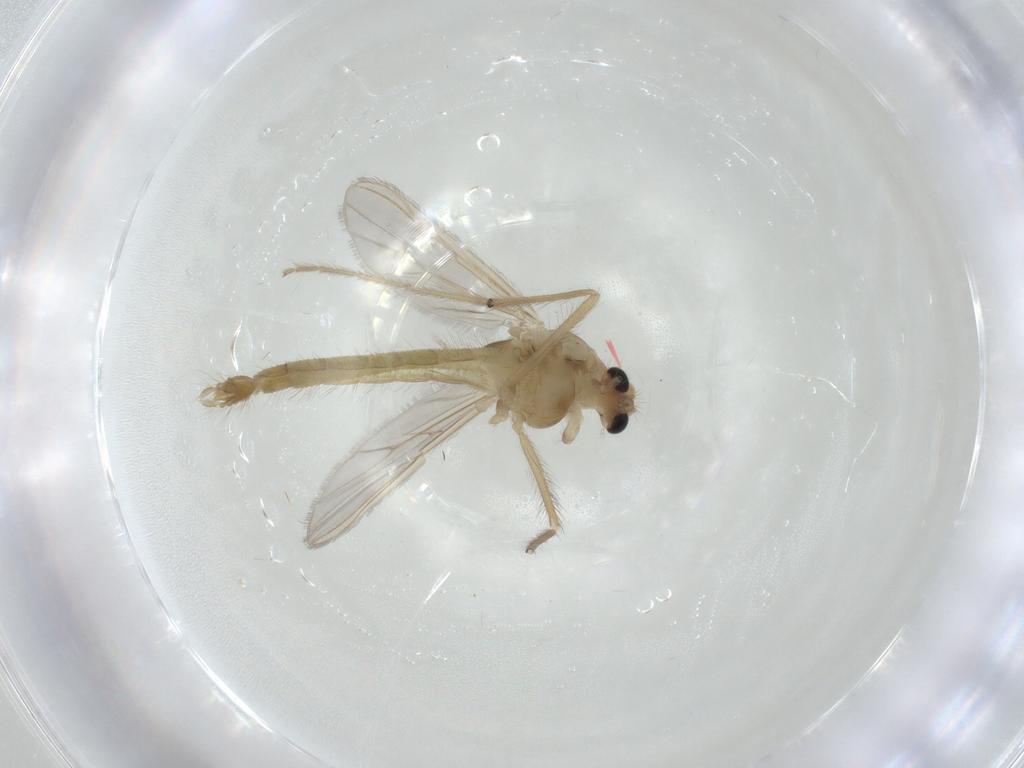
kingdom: Animalia
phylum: Arthropoda
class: Insecta
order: Diptera
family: Chironomidae
